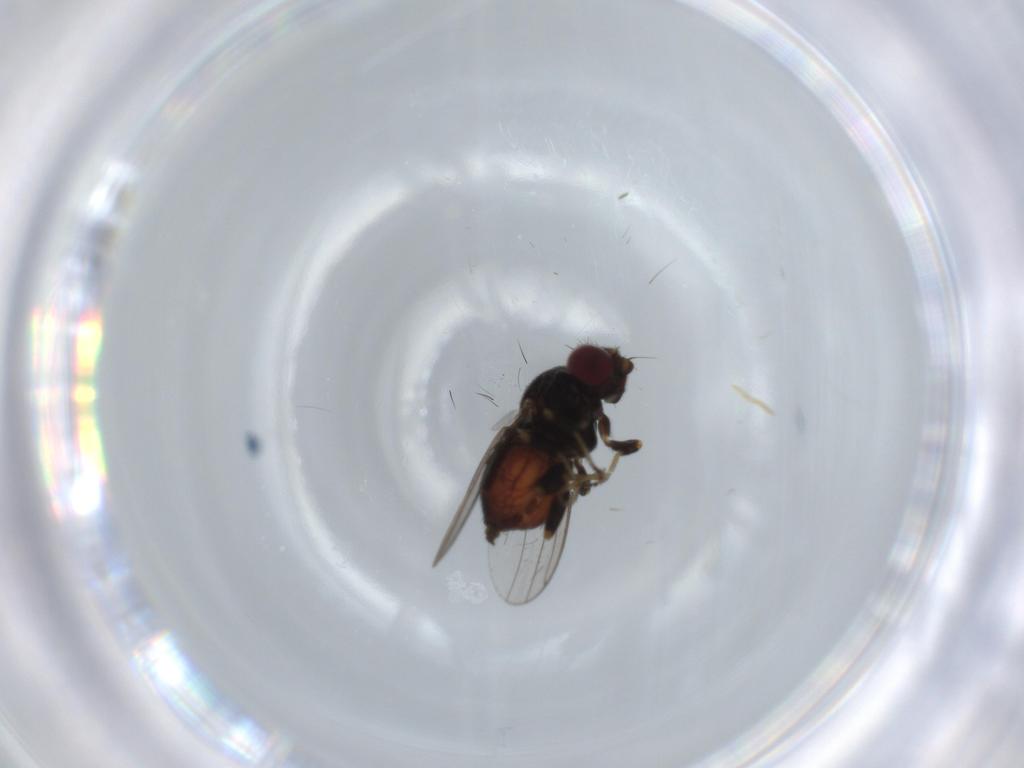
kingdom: Animalia
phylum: Arthropoda
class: Insecta
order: Diptera
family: Chloropidae
